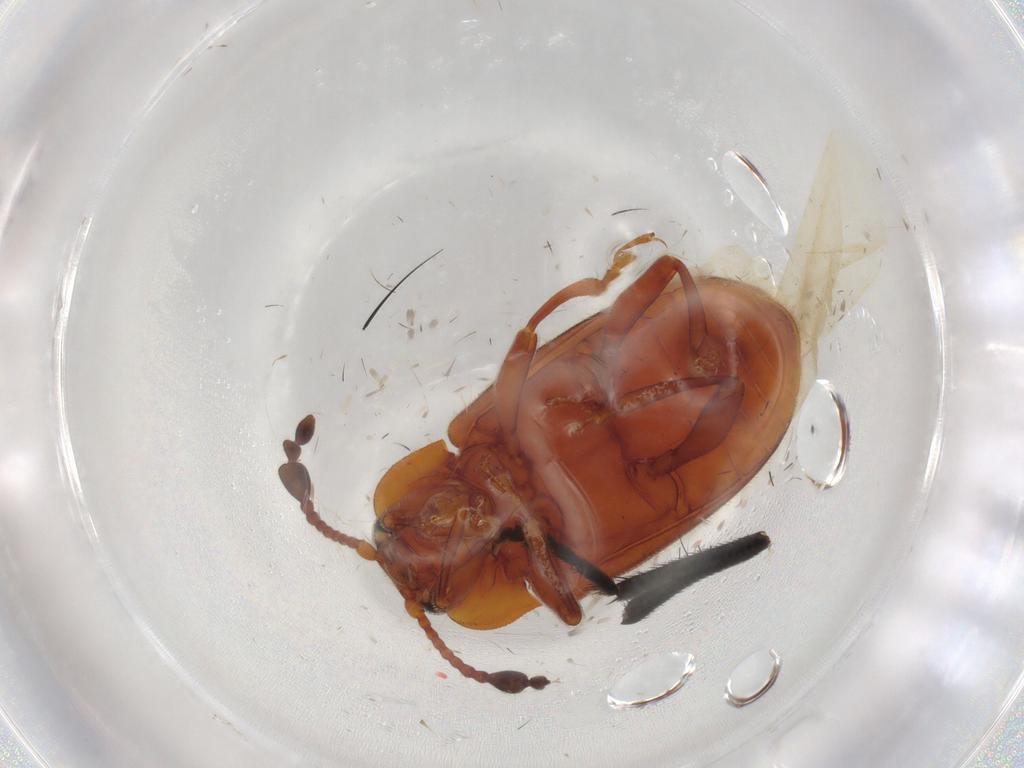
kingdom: Animalia
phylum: Arthropoda
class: Insecta
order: Coleoptera
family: Endomychidae
